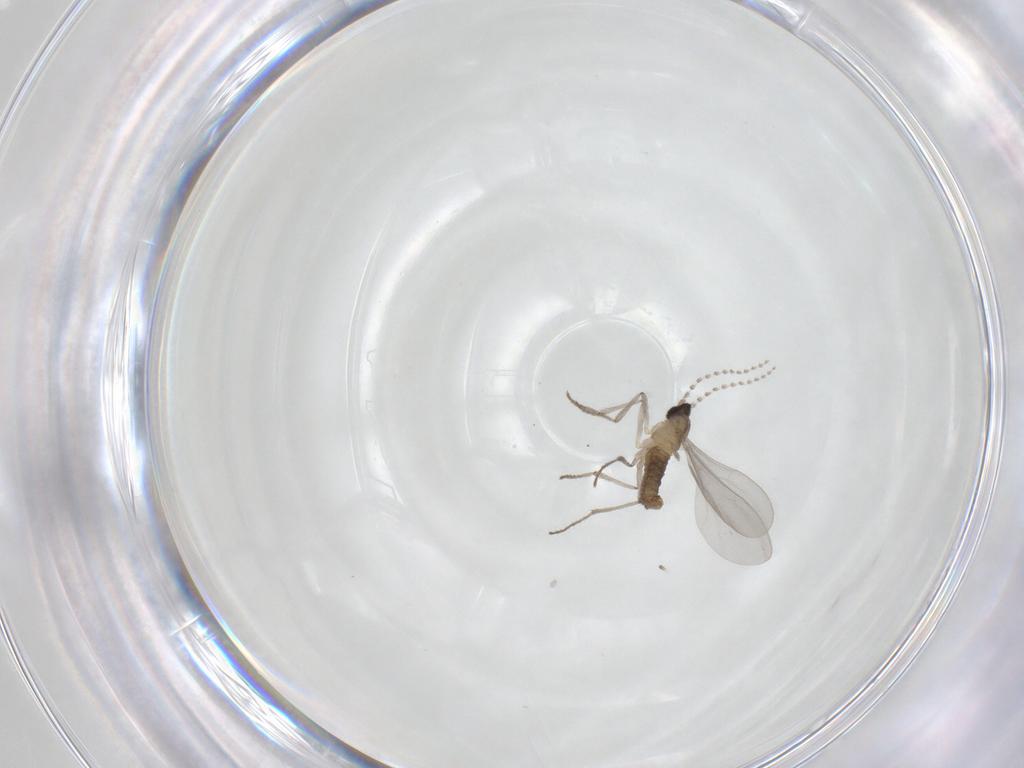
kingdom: Animalia
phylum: Arthropoda
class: Insecta
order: Diptera
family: Cecidomyiidae
